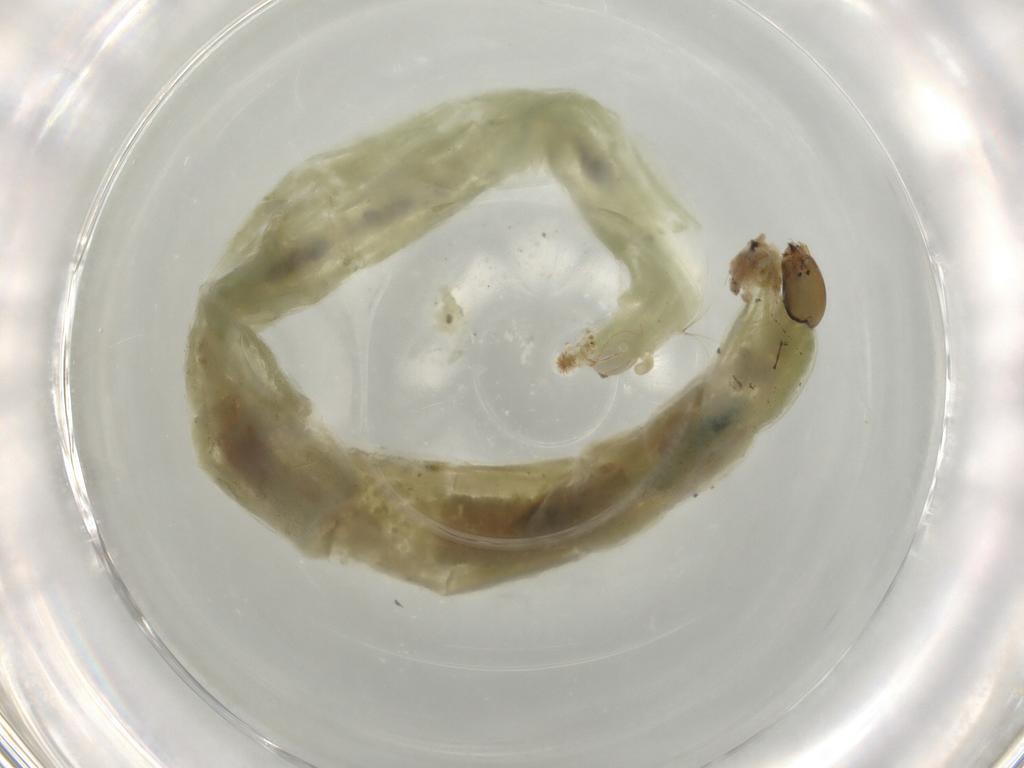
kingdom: Animalia
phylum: Arthropoda
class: Insecta
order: Diptera
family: Chironomidae
